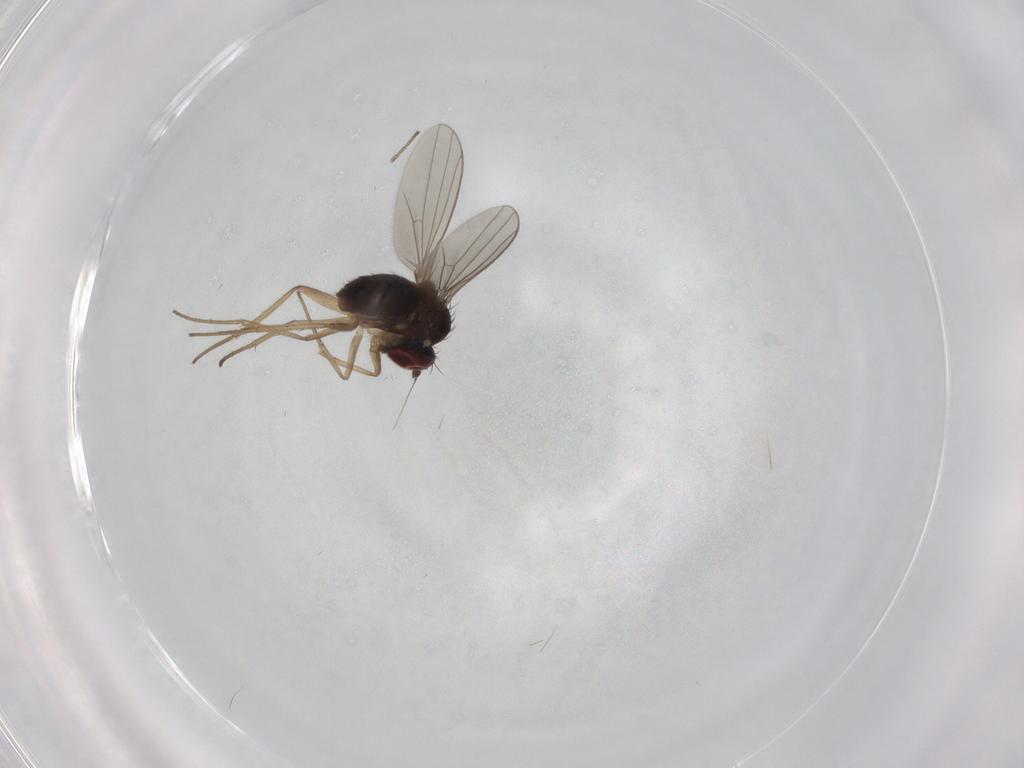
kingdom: Animalia
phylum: Arthropoda
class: Insecta
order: Diptera
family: Dolichopodidae
